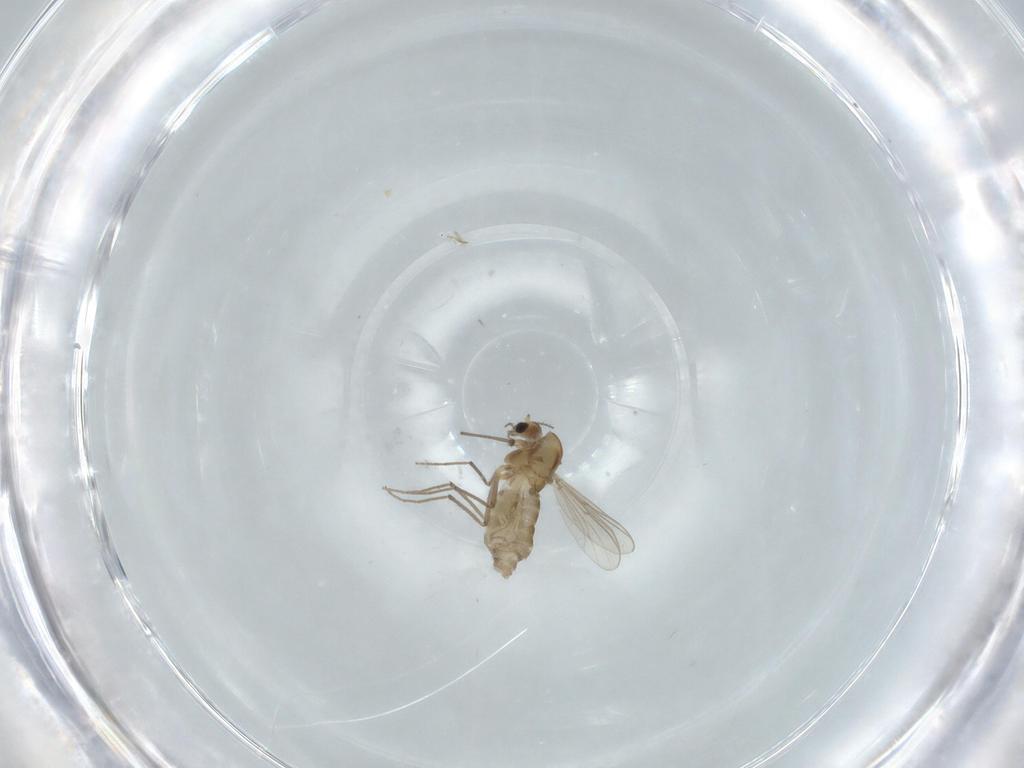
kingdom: Animalia
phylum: Arthropoda
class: Insecta
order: Diptera
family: Chironomidae
